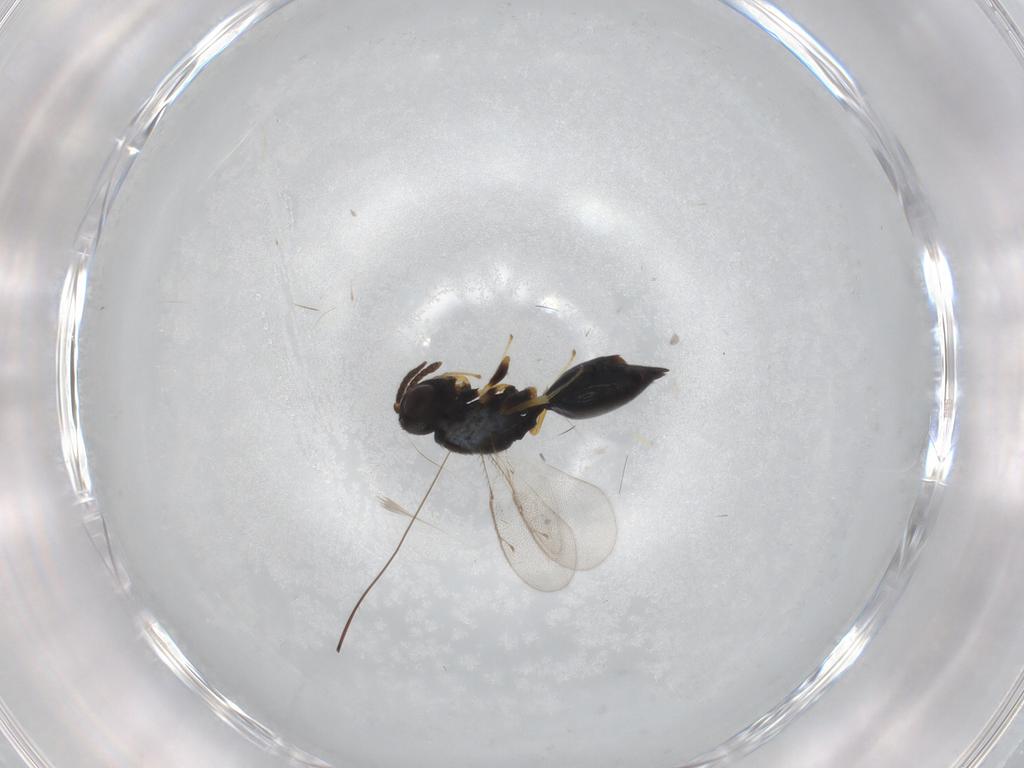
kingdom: Animalia
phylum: Arthropoda
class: Insecta
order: Hymenoptera
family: Pteromalidae
